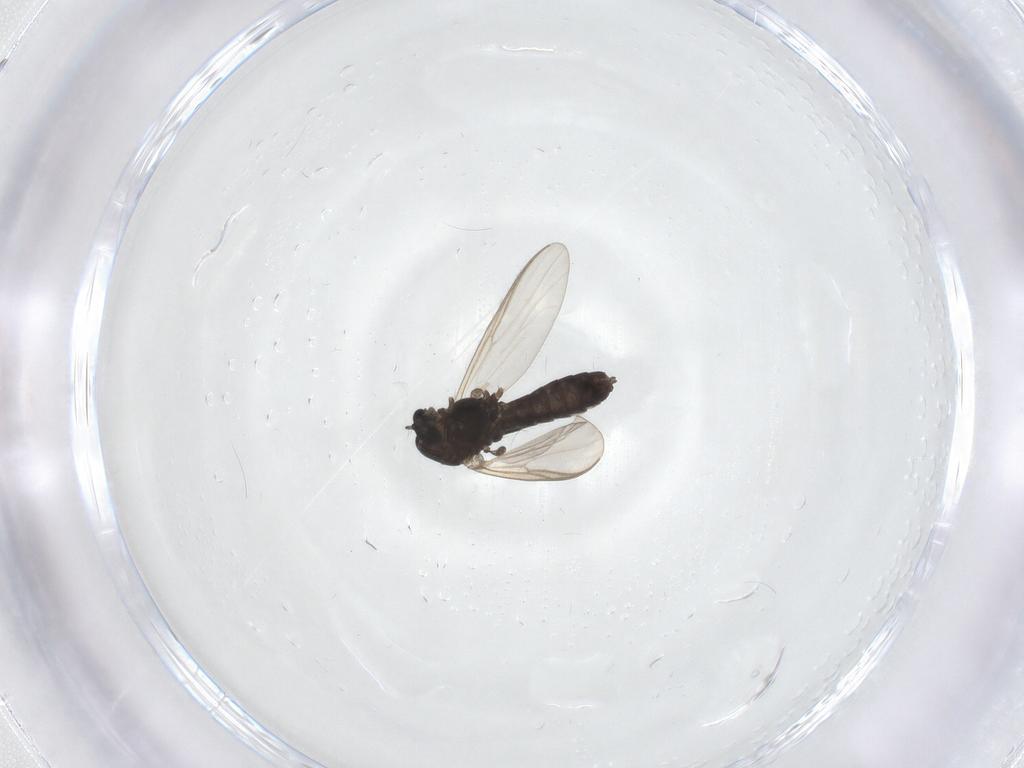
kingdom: Animalia
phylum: Arthropoda
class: Insecta
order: Diptera
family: Chironomidae
